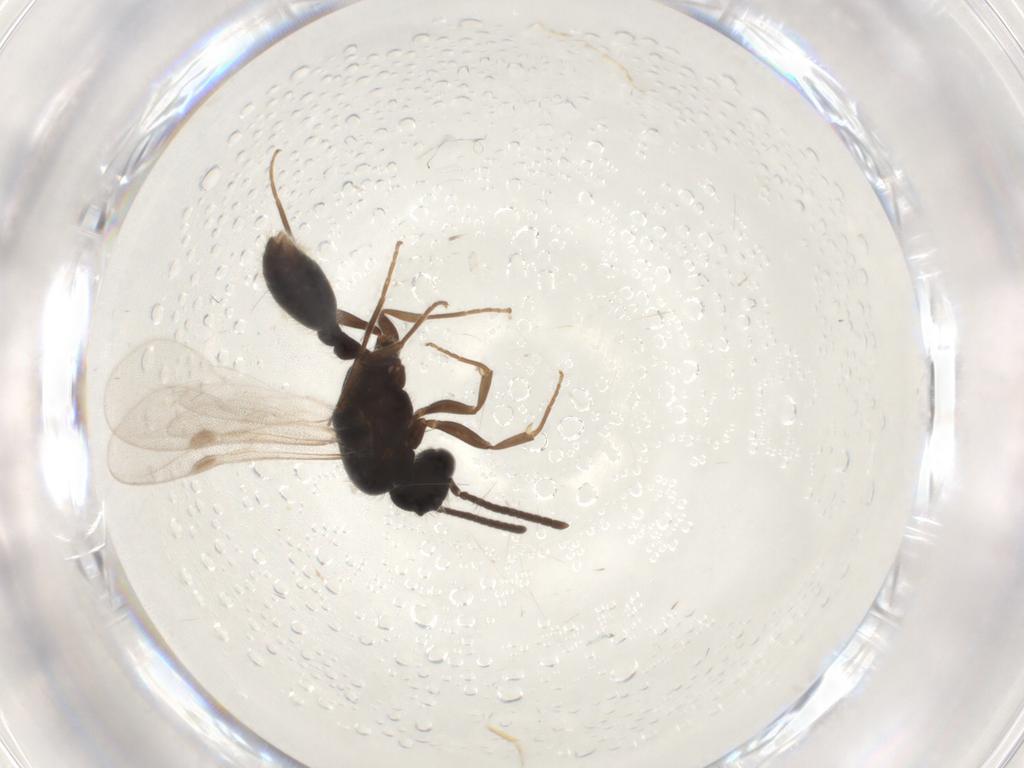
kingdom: Animalia
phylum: Arthropoda
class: Insecta
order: Hymenoptera
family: Formicidae
